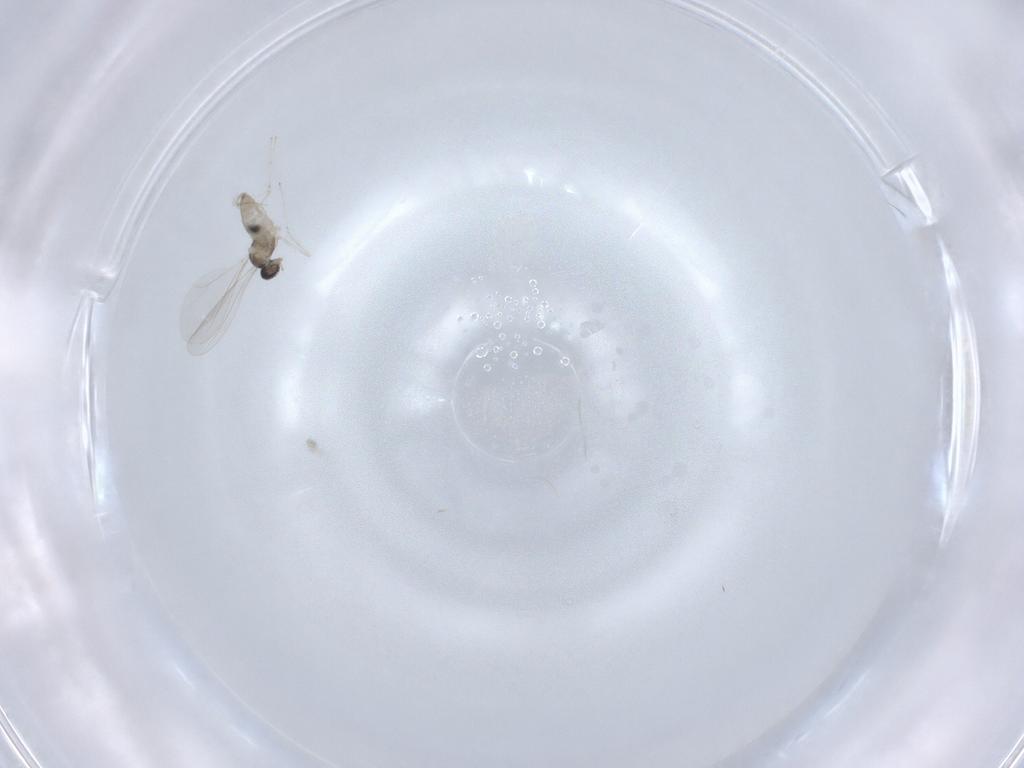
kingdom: Animalia
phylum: Arthropoda
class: Insecta
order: Diptera
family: Cecidomyiidae
